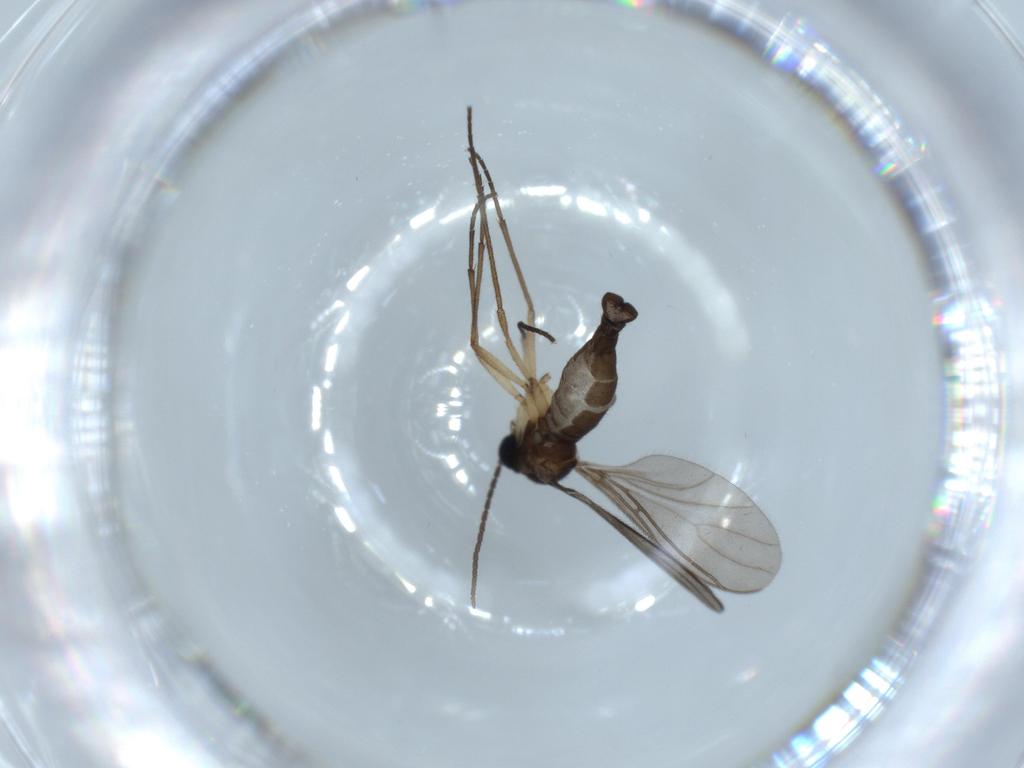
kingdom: Animalia
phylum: Arthropoda
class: Insecta
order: Diptera
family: Sciaridae
